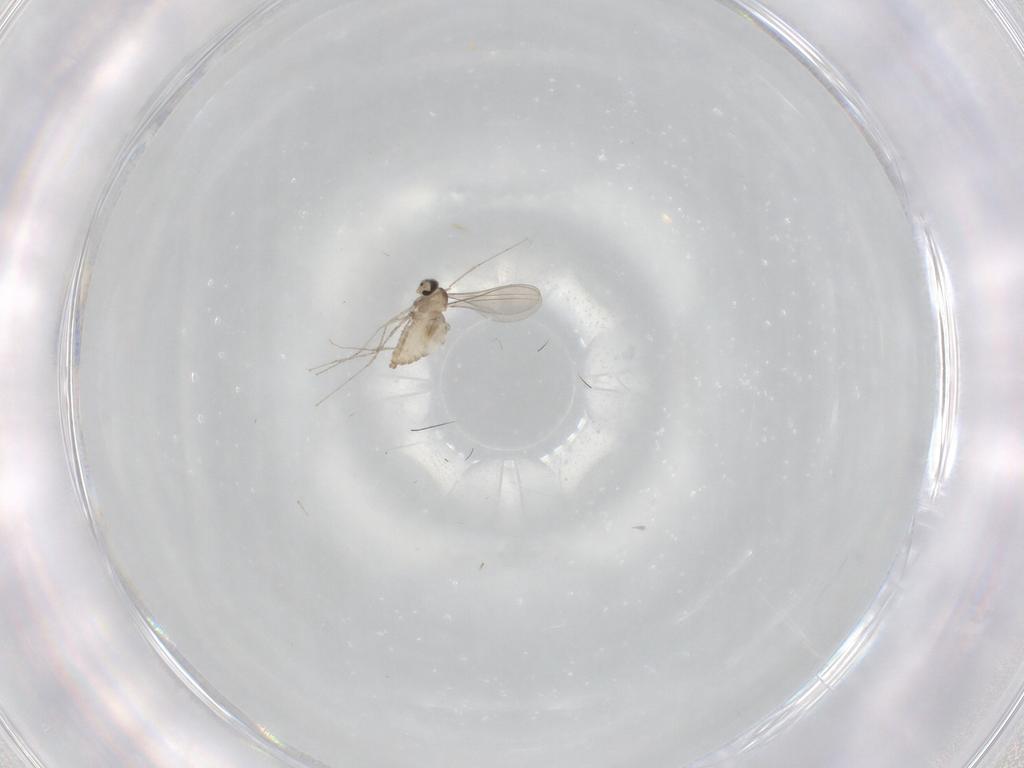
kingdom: Animalia
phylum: Arthropoda
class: Insecta
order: Diptera
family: Cecidomyiidae
